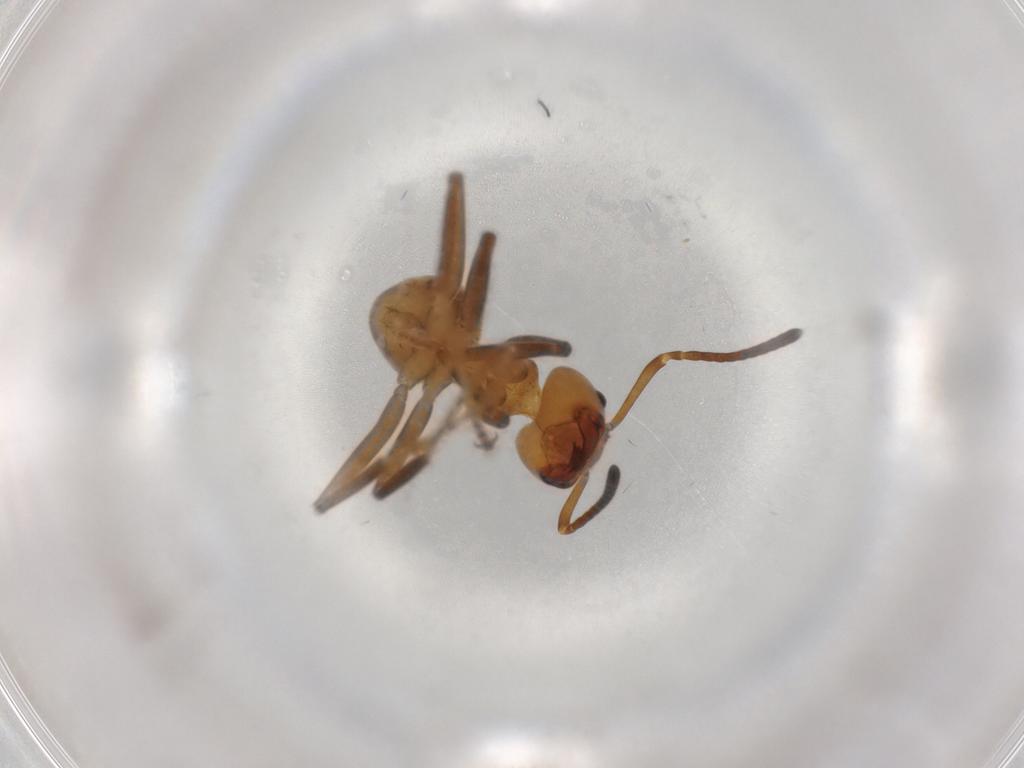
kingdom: Animalia
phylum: Arthropoda
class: Insecta
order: Hymenoptera
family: Formicidae
